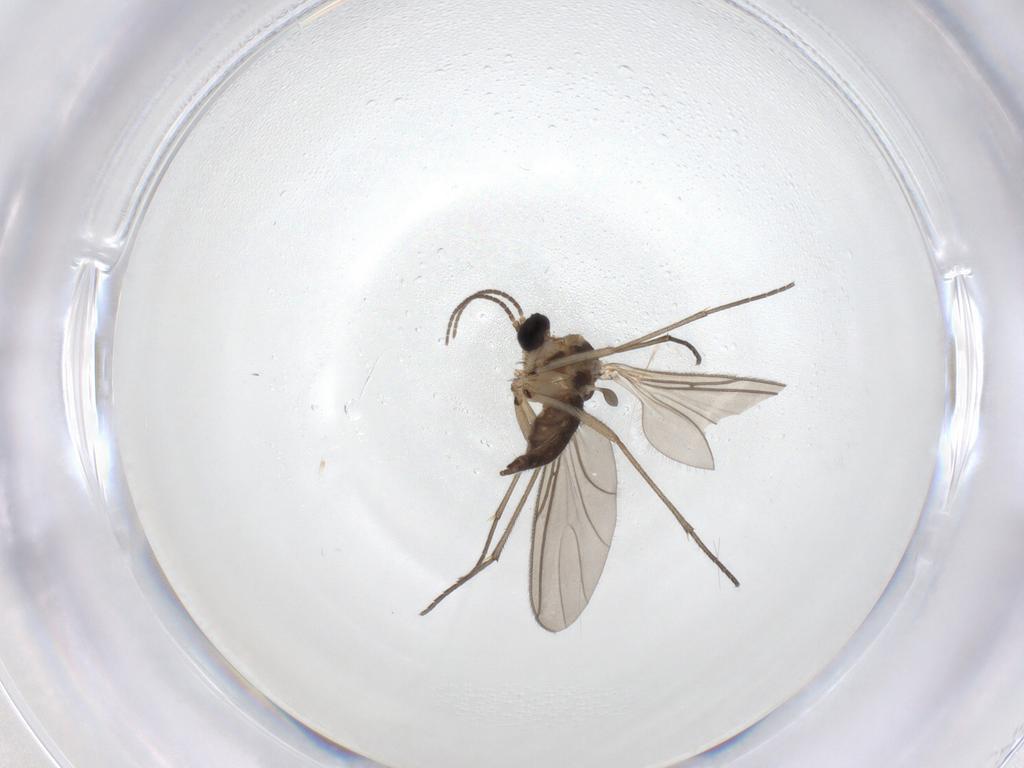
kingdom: Animalia
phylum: Arthropoda
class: Insecta
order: Diptera
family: Sciaridae
